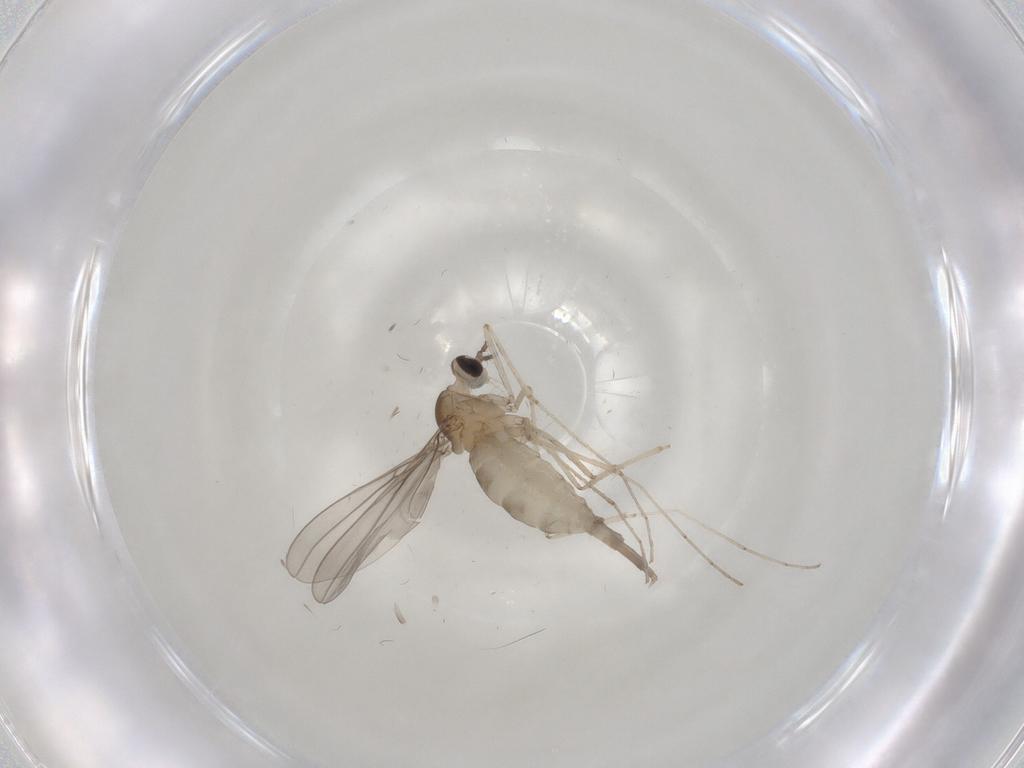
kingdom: Animalia
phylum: Arthropoda
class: Insecta
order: Diptera
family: Cecidomyiidae
